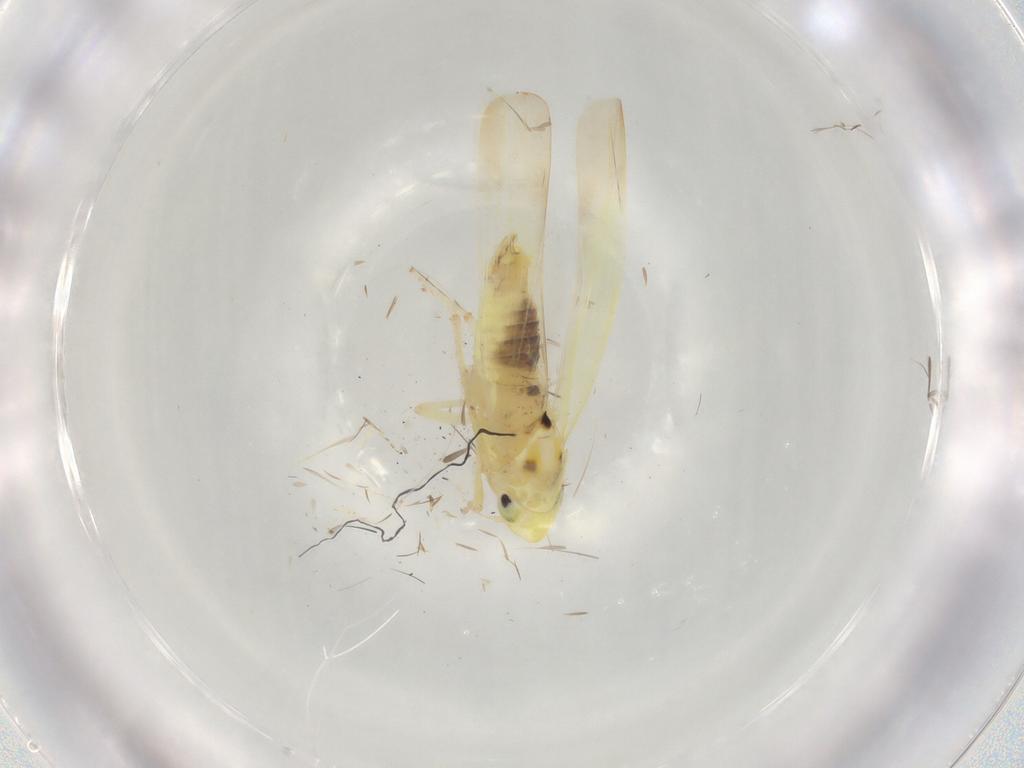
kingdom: Animalia
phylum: Arthropoda
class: Insecta
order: Hemiptera
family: Cicadellidae
